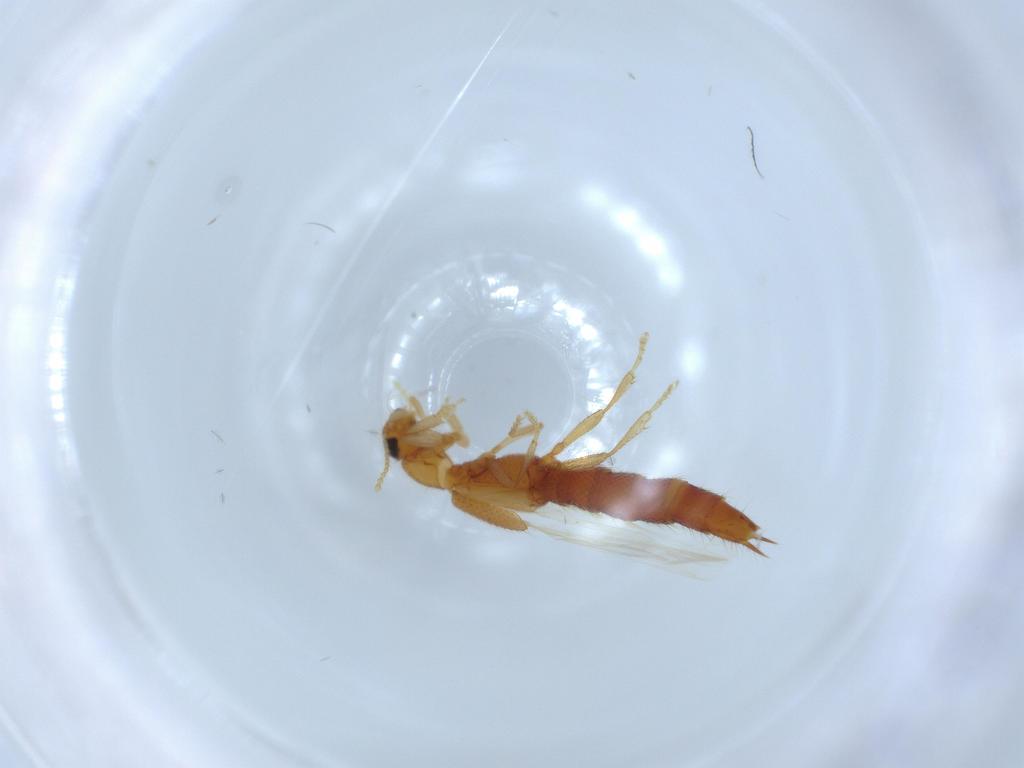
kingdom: Animalia
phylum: Arthropoda
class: Insecta
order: Coleoptera
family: Staphylinidae
